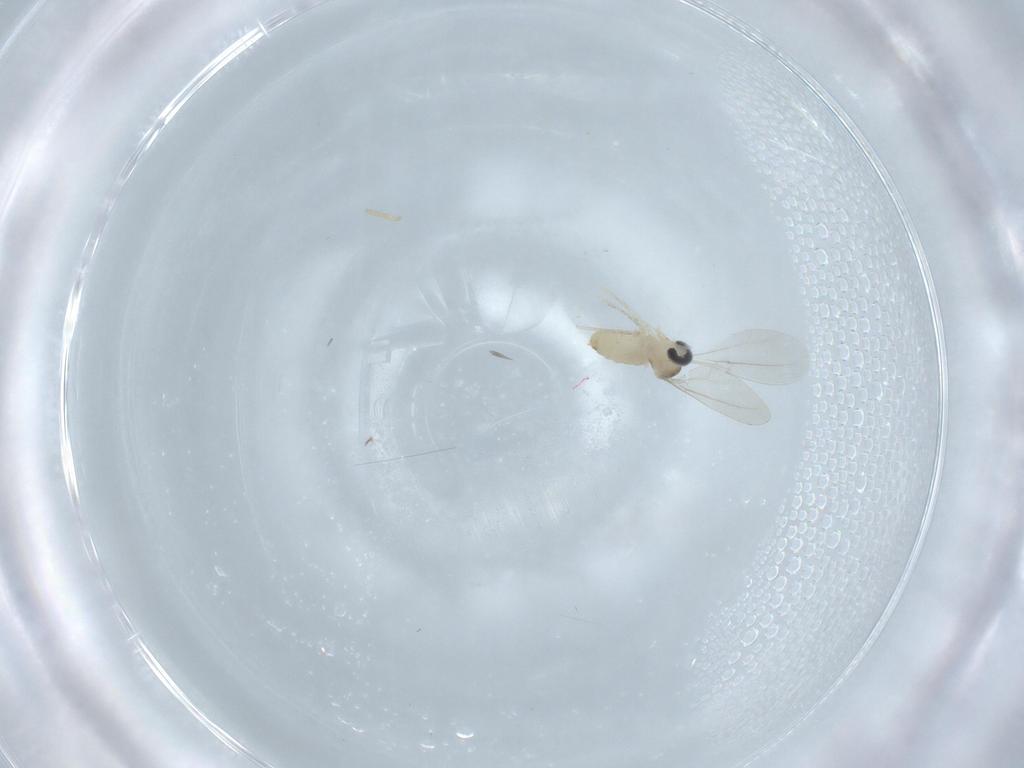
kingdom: Animalia
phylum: Arthropoda
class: Insecta
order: Diptera
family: Cecidomyiidae
